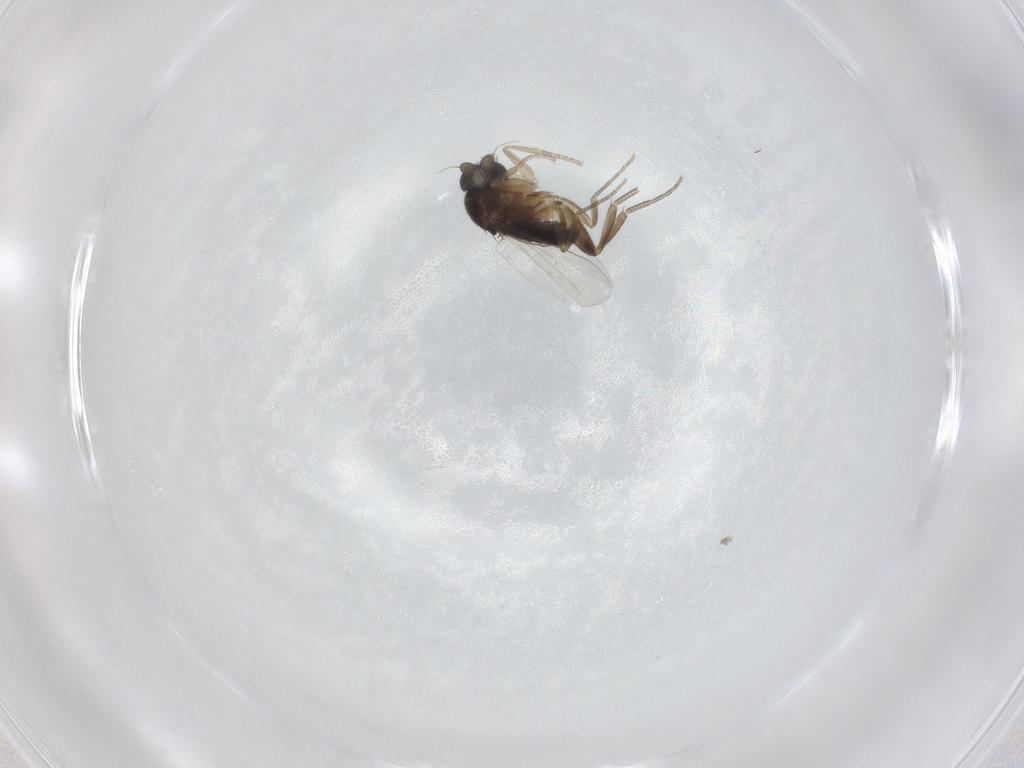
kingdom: Animalia
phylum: Arthropoda
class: Insecta
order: Diptera
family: Phoridae
